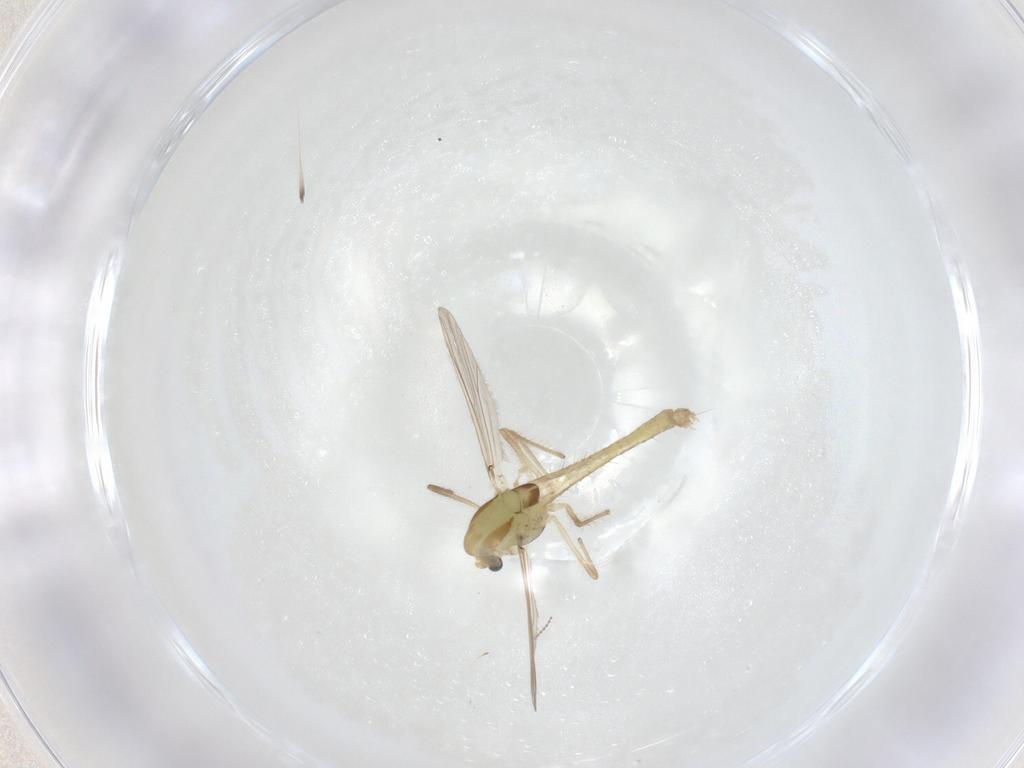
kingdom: Animalia
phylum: Arthropoda
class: Insecta
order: Diptera
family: Chironomidae
